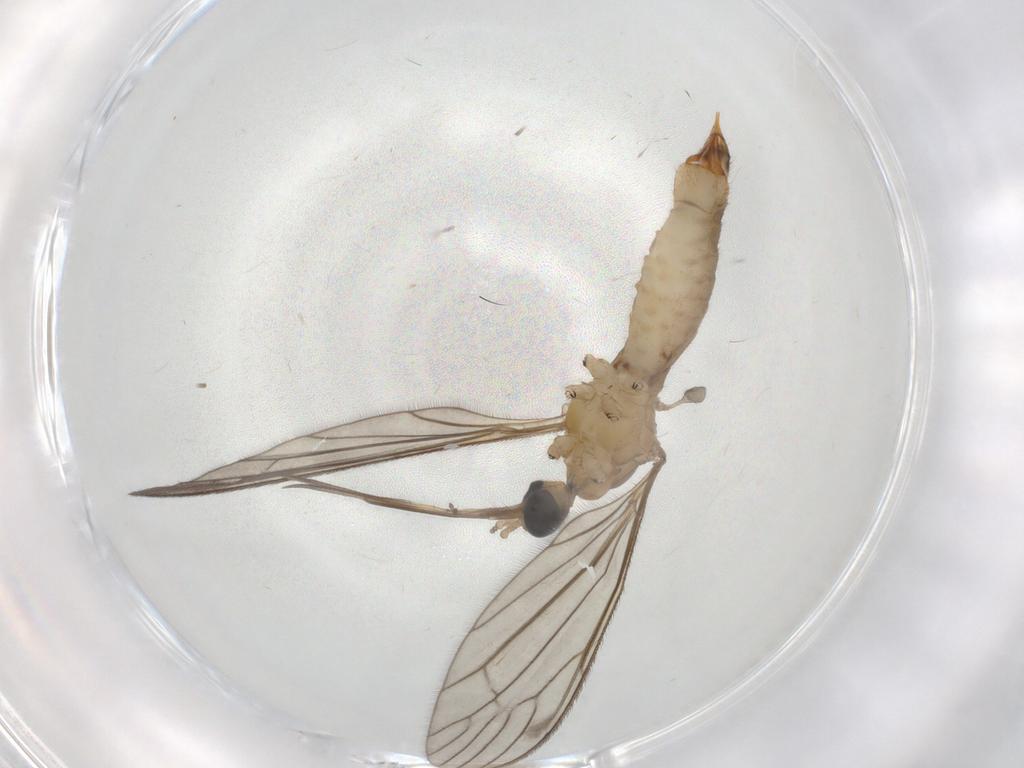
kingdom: Animalia
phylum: Arthropoda
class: Insecta
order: Diptera
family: Dolichopodidae
